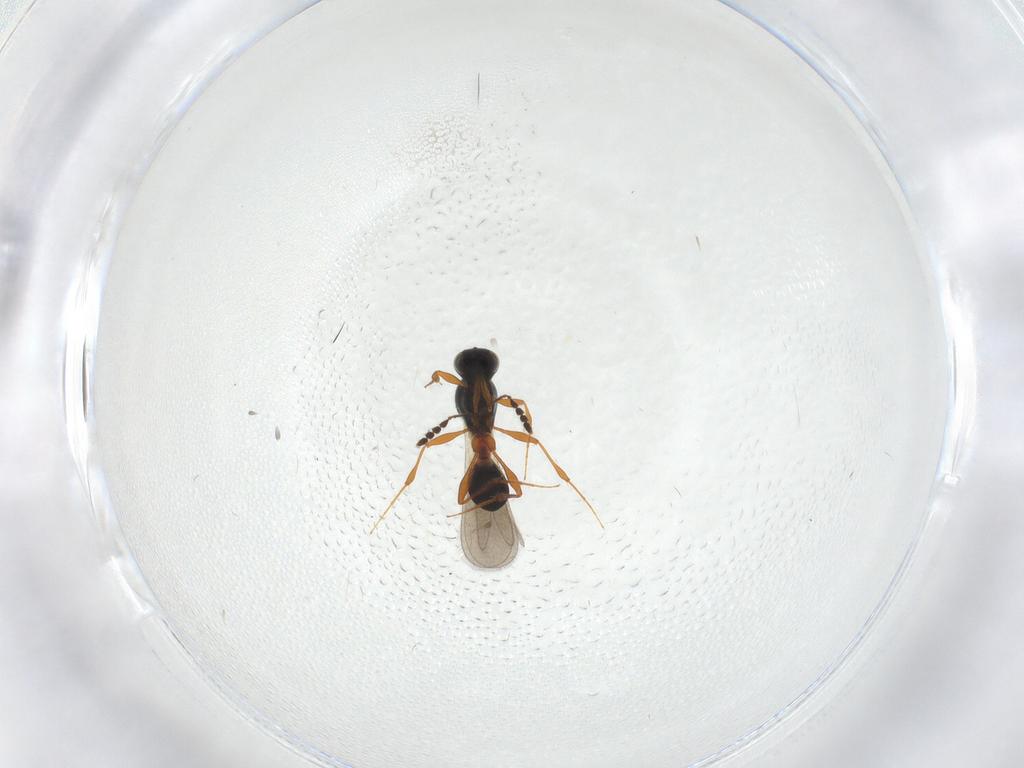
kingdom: Animalia
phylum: Arthropoda
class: Insecta
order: Hymenoptera
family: Platygastridae
